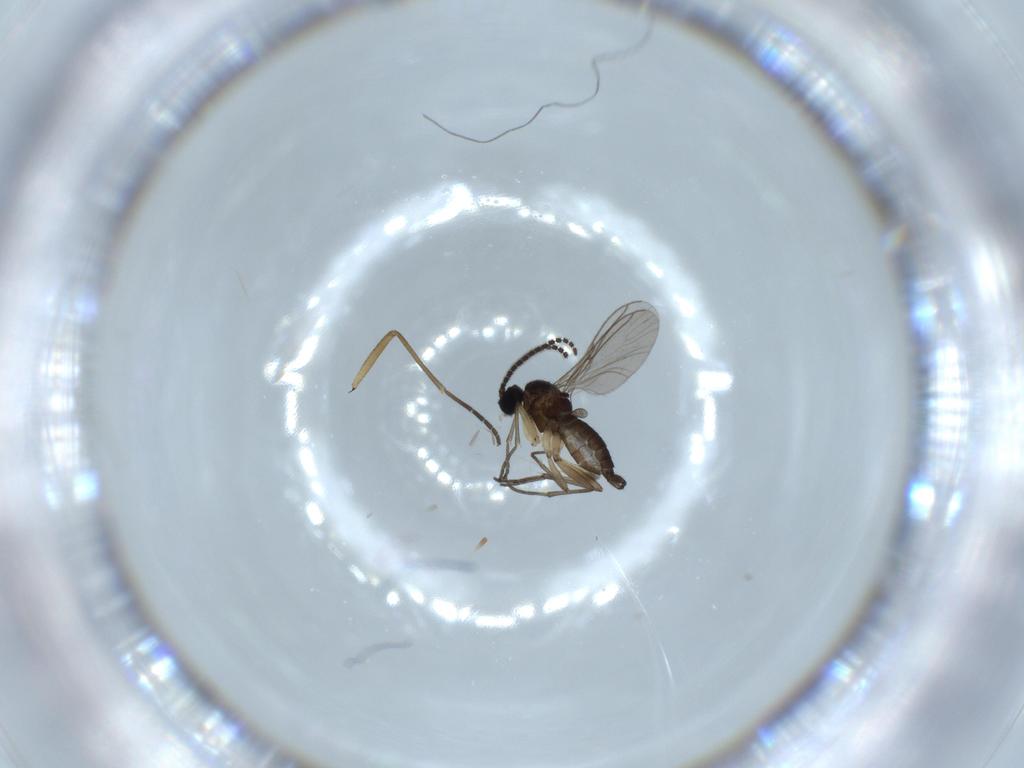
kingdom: Animalia
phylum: Arthropoda
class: Insecta
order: Diptera
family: Sciaridae
